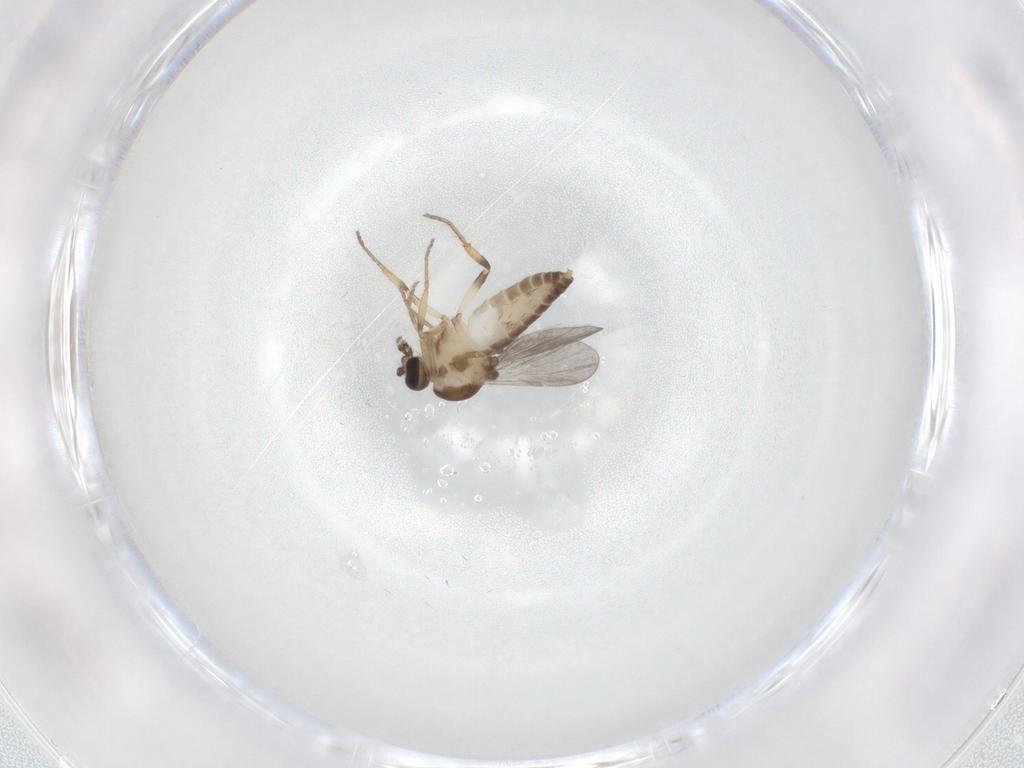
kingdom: Animalia
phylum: Arthropoda
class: Insecta
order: Diptera
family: Ceratopogonidae
